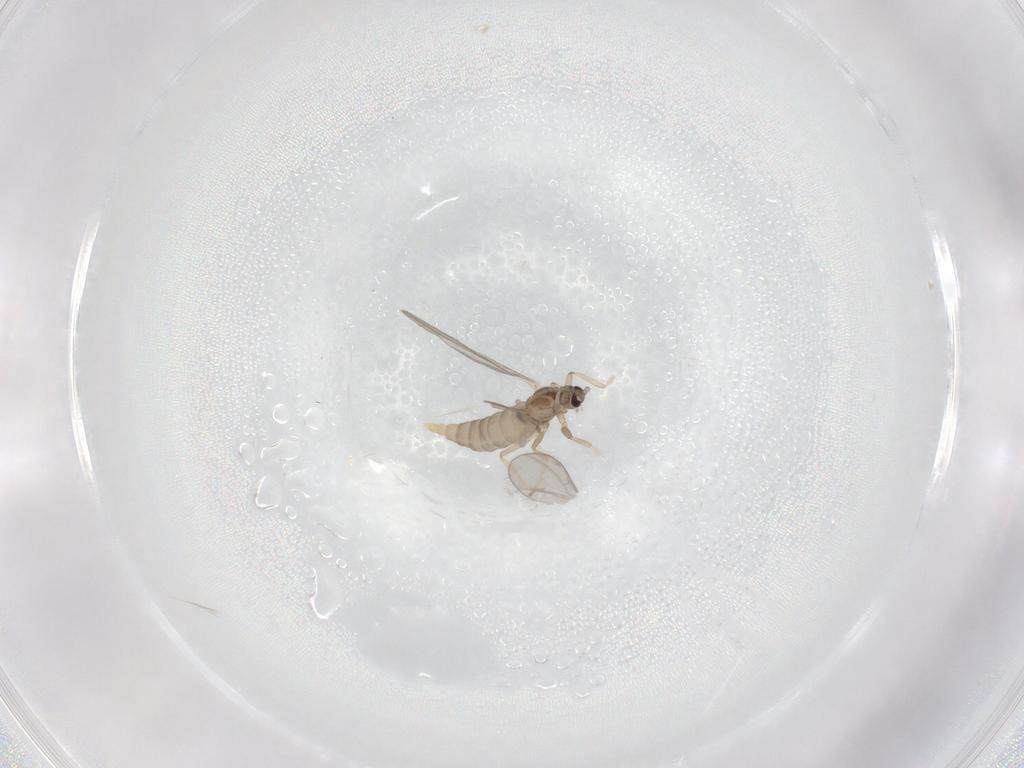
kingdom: Animalia
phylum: Arthropoda
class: Insecta
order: Diptera
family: Cecidomyiidae
